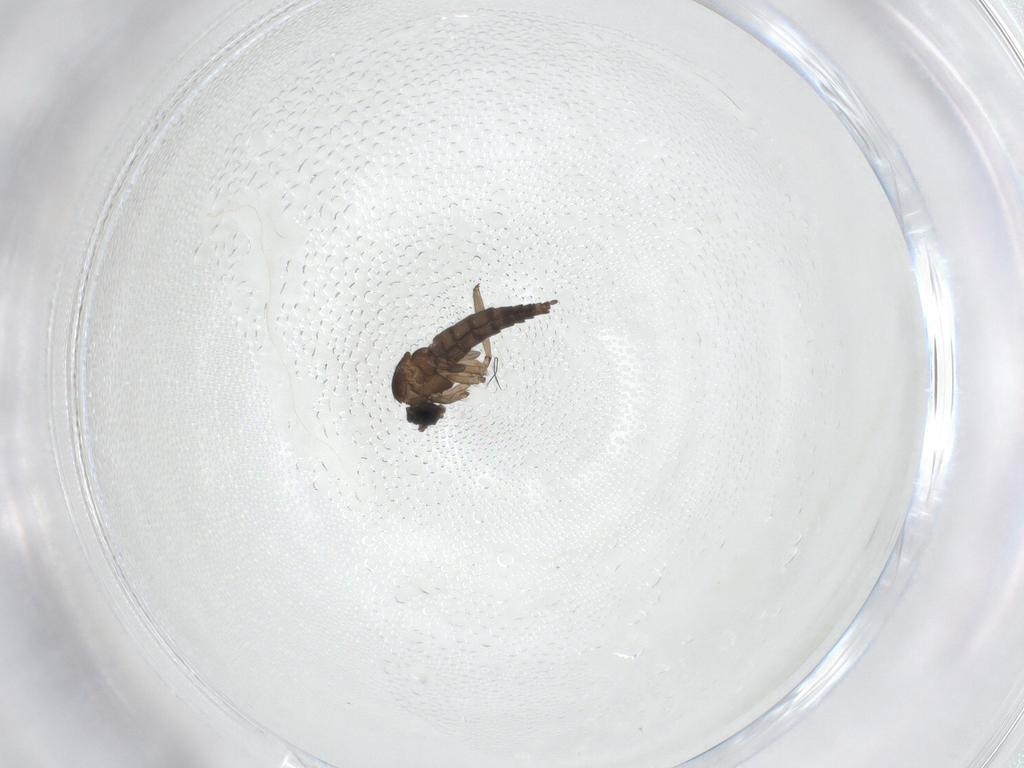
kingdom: Animalia
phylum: Arthropoda
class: Insecta
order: Diptera
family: Sciaridae
